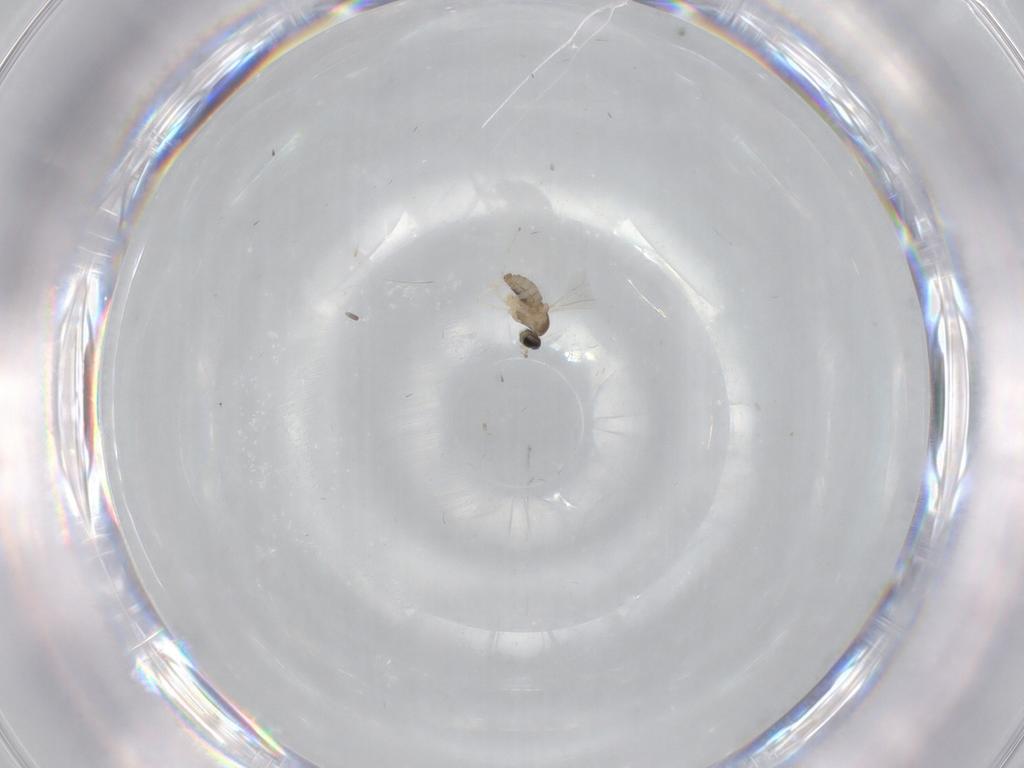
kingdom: Animalia
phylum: Arthropoda
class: Insecta
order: Diptera
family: Cecidomyiidae
